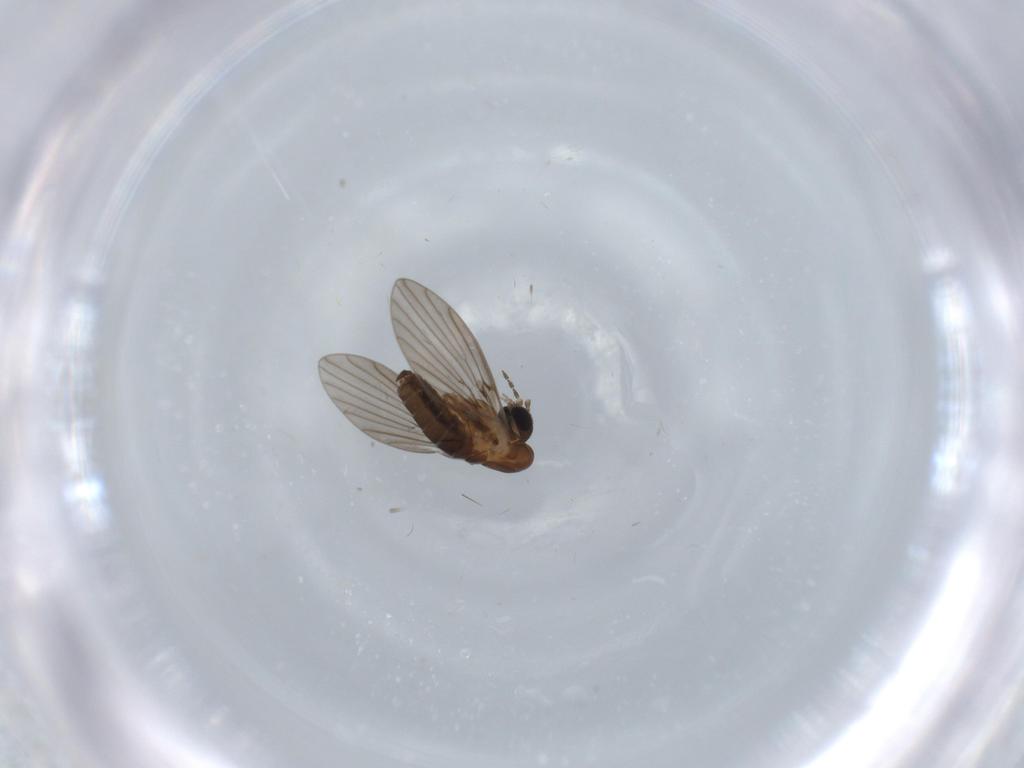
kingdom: Animalia
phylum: Arthropoda
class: Insecta
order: Diptera
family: Psychodidae
